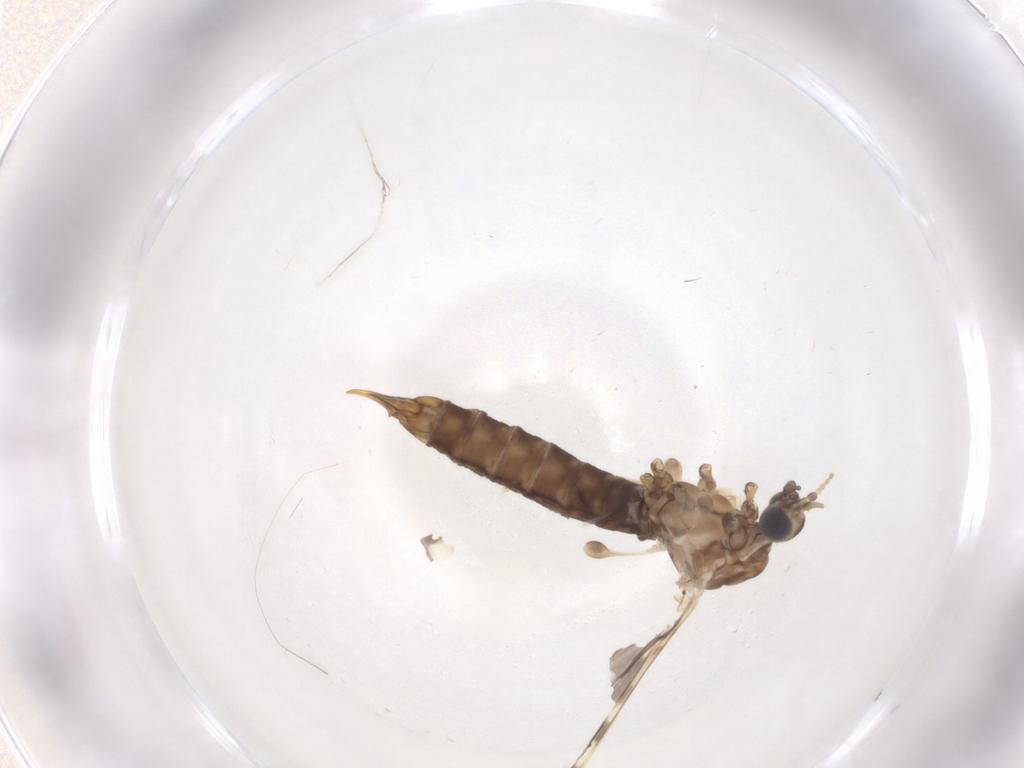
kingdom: Animalia
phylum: Arthropoda
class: Insecta
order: Diptera
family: Limoniidae
